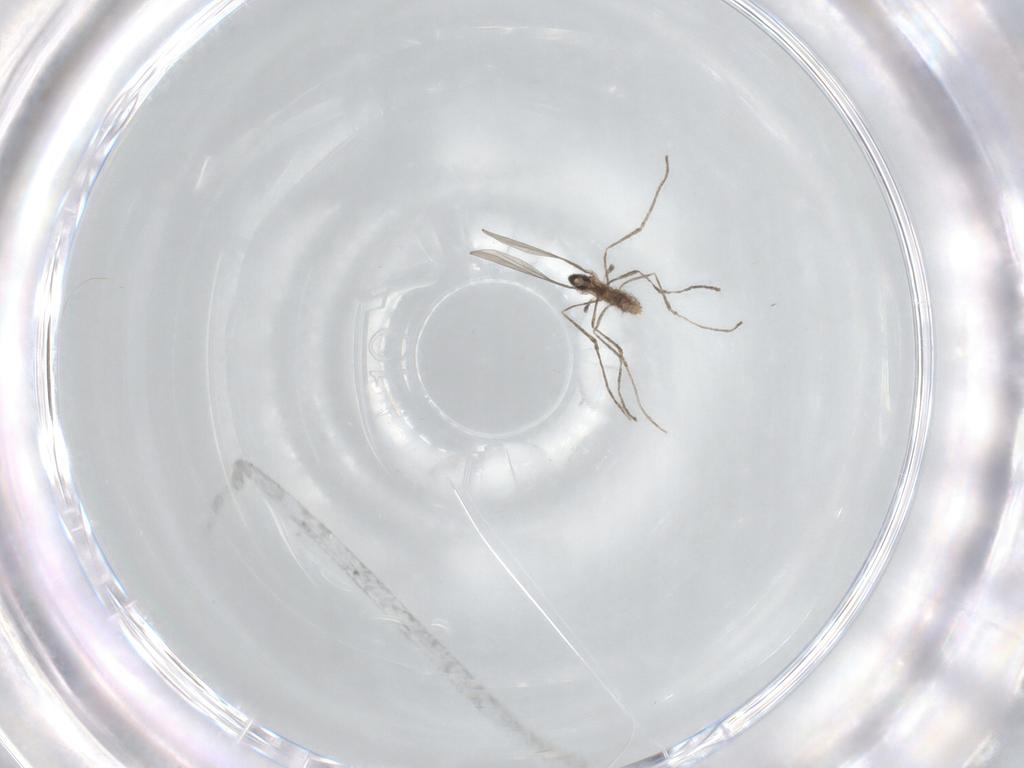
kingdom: Animalia
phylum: Arthropoda
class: Insecta
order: Diptera
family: Cecidomyiidae
